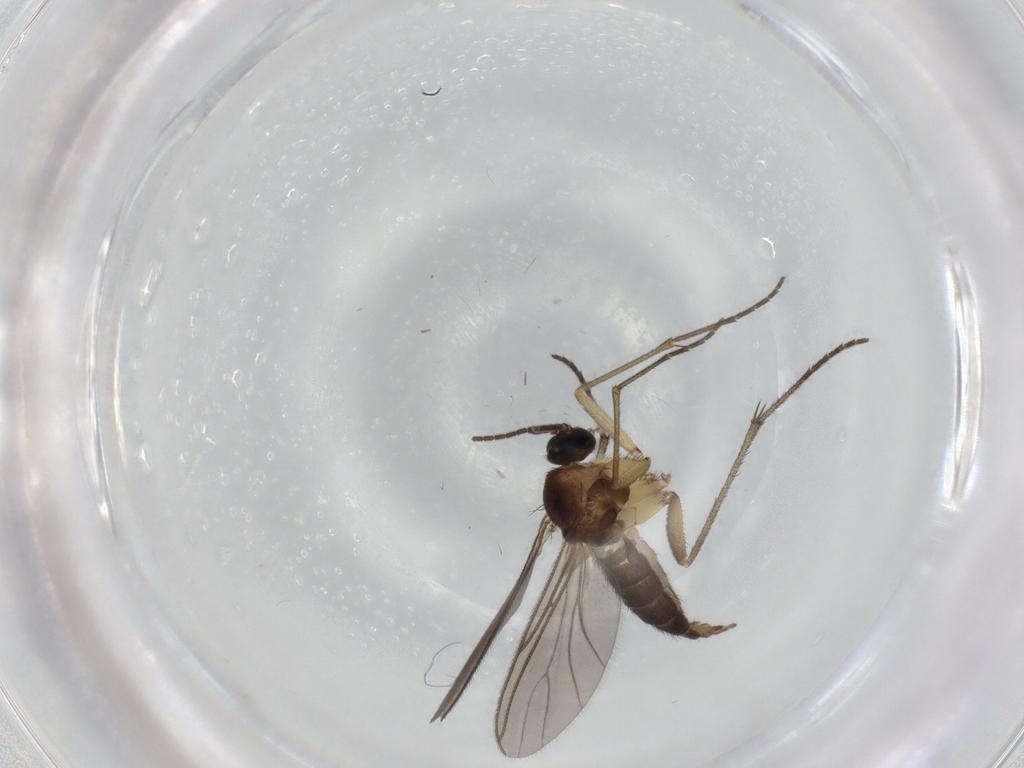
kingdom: Animalia
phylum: Arthropoda
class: Insecta
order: Diptera
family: Sciaridae
